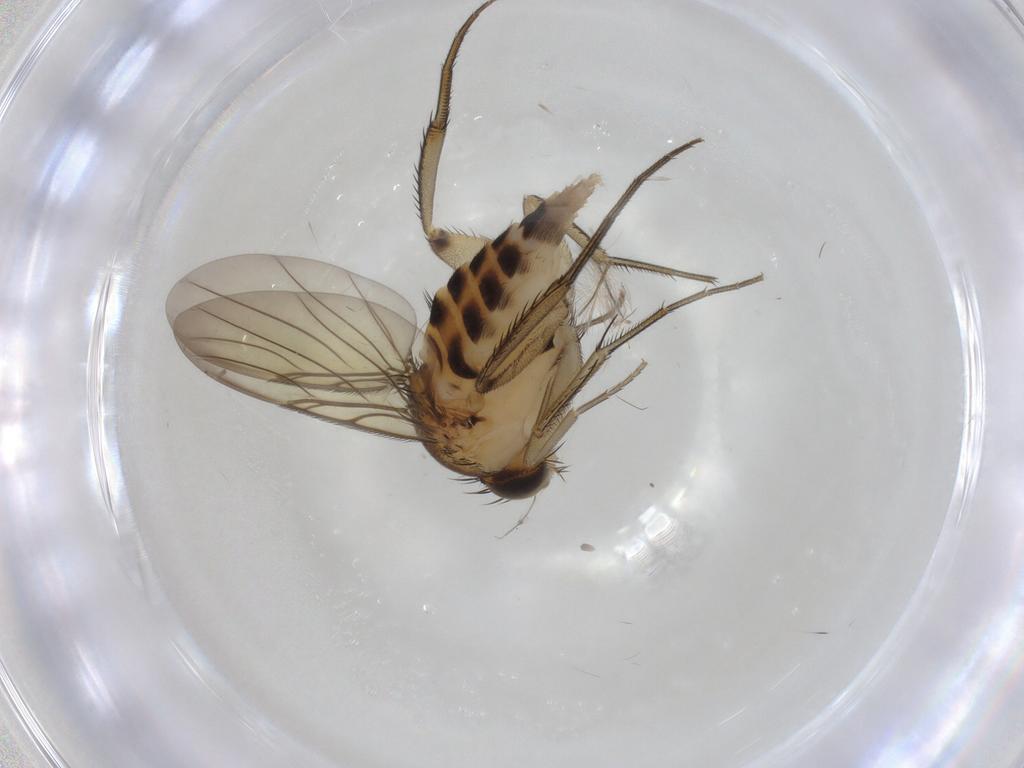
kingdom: Animalia
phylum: Arthropoda
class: Insecta
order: Diptera
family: Phoridae
